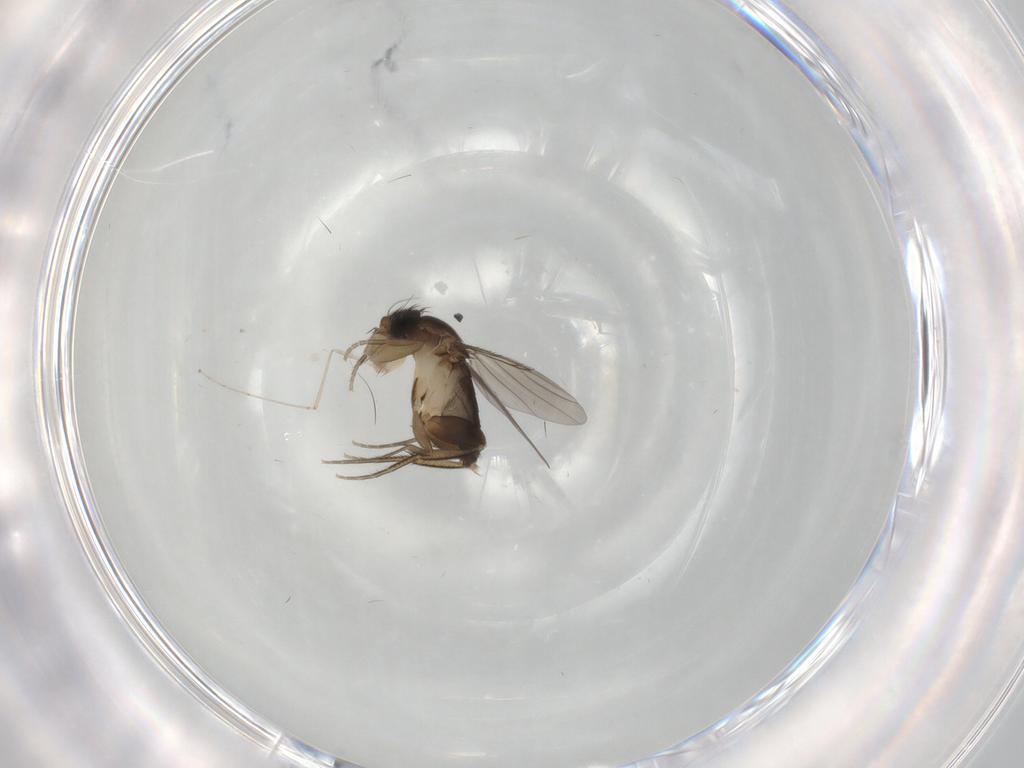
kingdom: Animalia
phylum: Arthropoda
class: Insecta
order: Diptera
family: Phoridae
